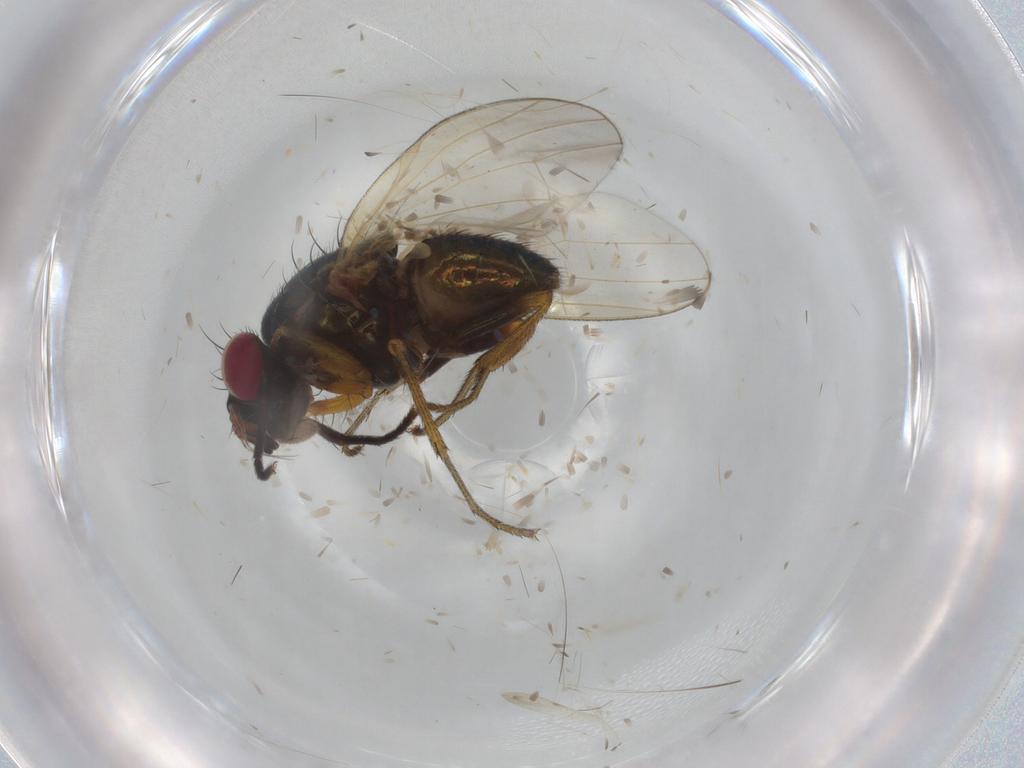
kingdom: Animalia
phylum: Arthropoda
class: Insecta
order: Diptera
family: Lauxaniidae
